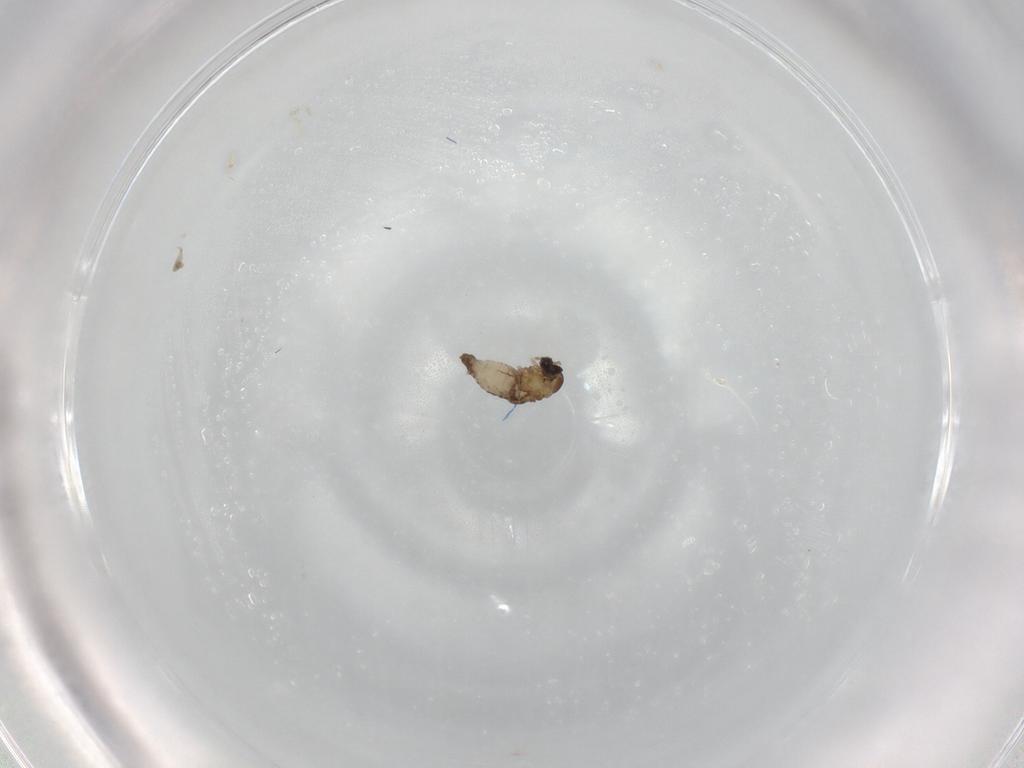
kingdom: Animalia
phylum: Arthropoda
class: Insecta
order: Diptera
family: Psychodidae
